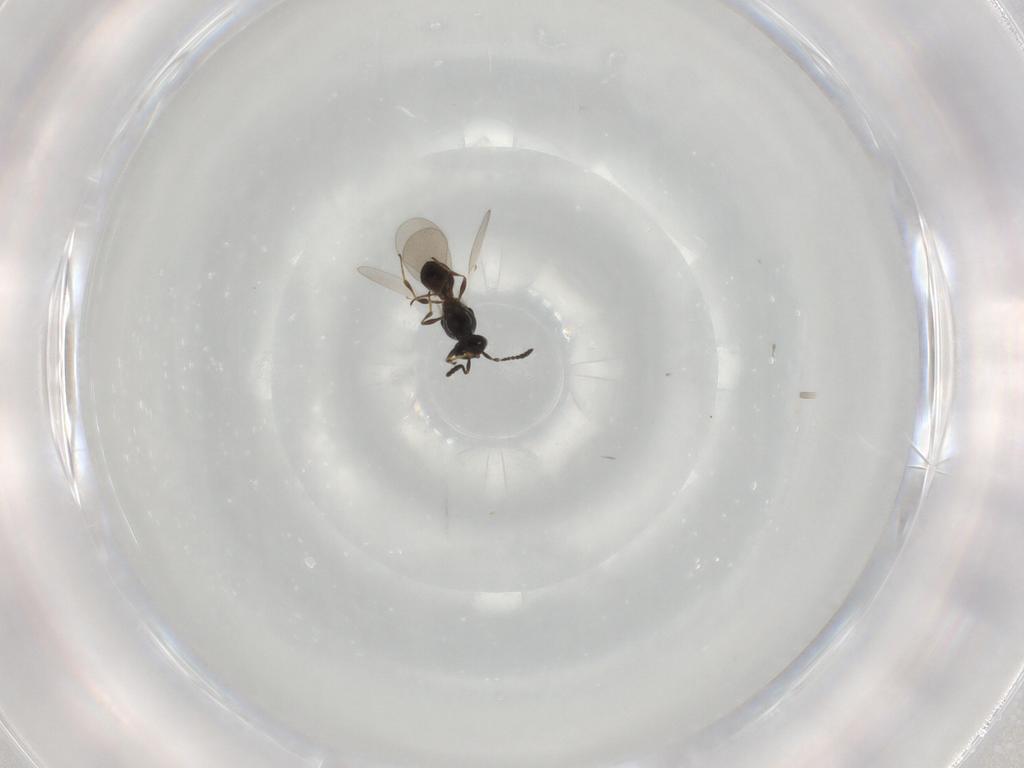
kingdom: Animalia
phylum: Arthropoda
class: Insecta
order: Hymenoptera
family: Platygastridae
